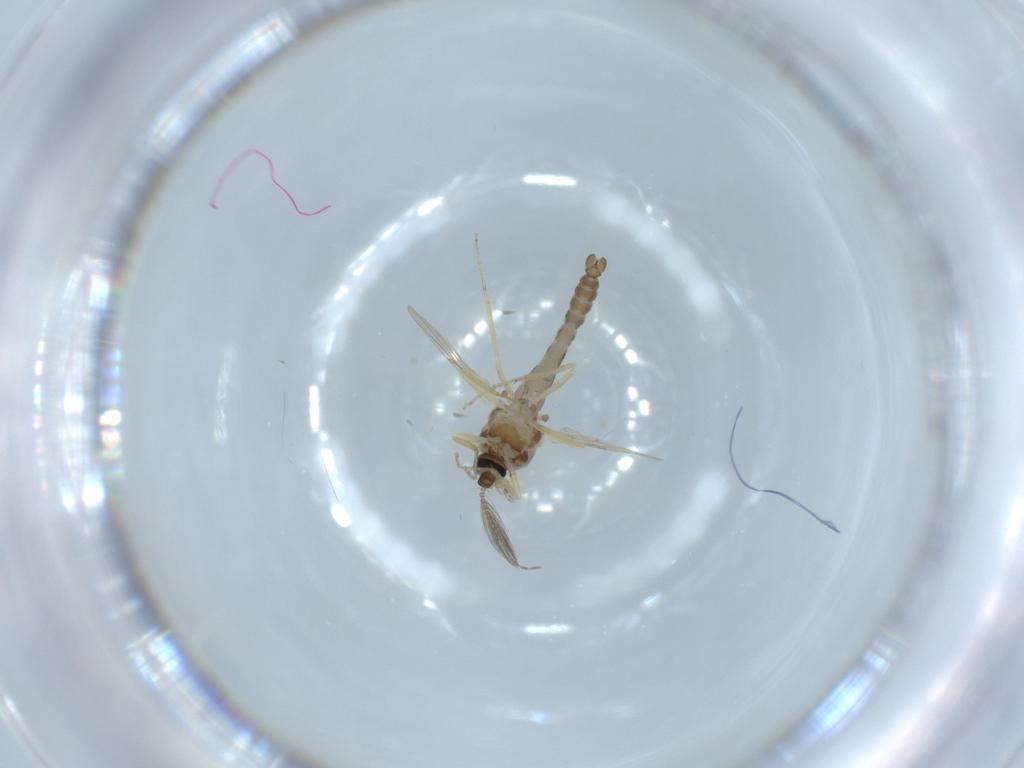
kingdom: Animalia
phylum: Arthropoda
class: Insecta
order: Diptera
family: Ceratopogonidae
